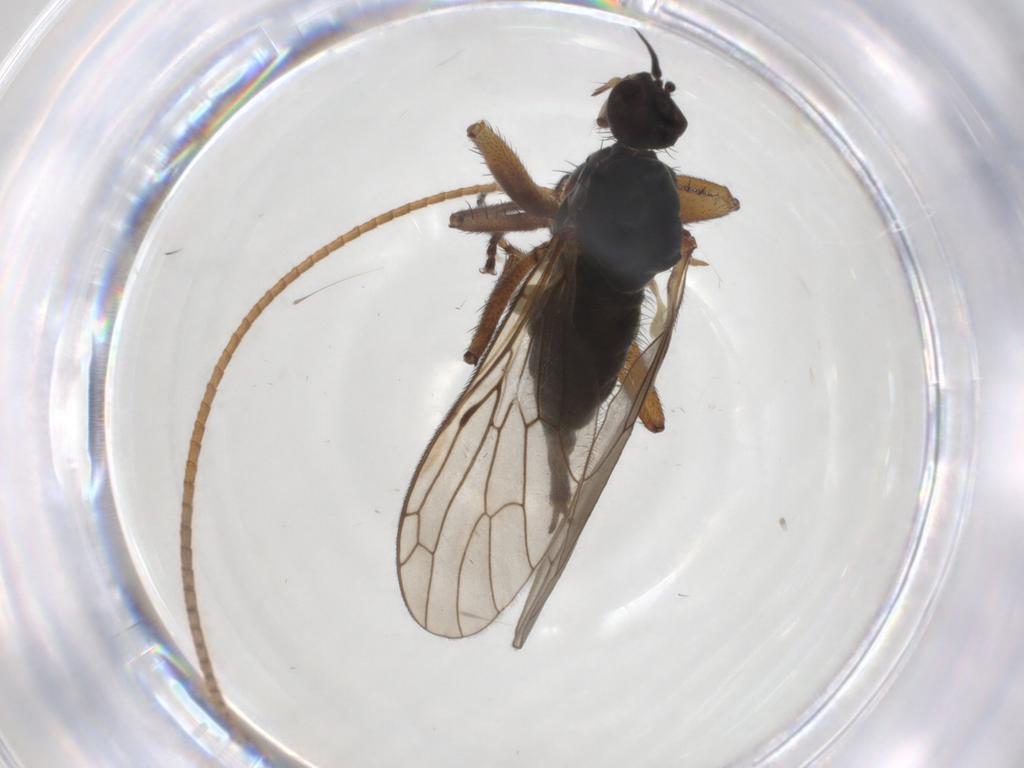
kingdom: Animalia
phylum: Arthropoda
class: Insecta
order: Diptera
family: Empididae
